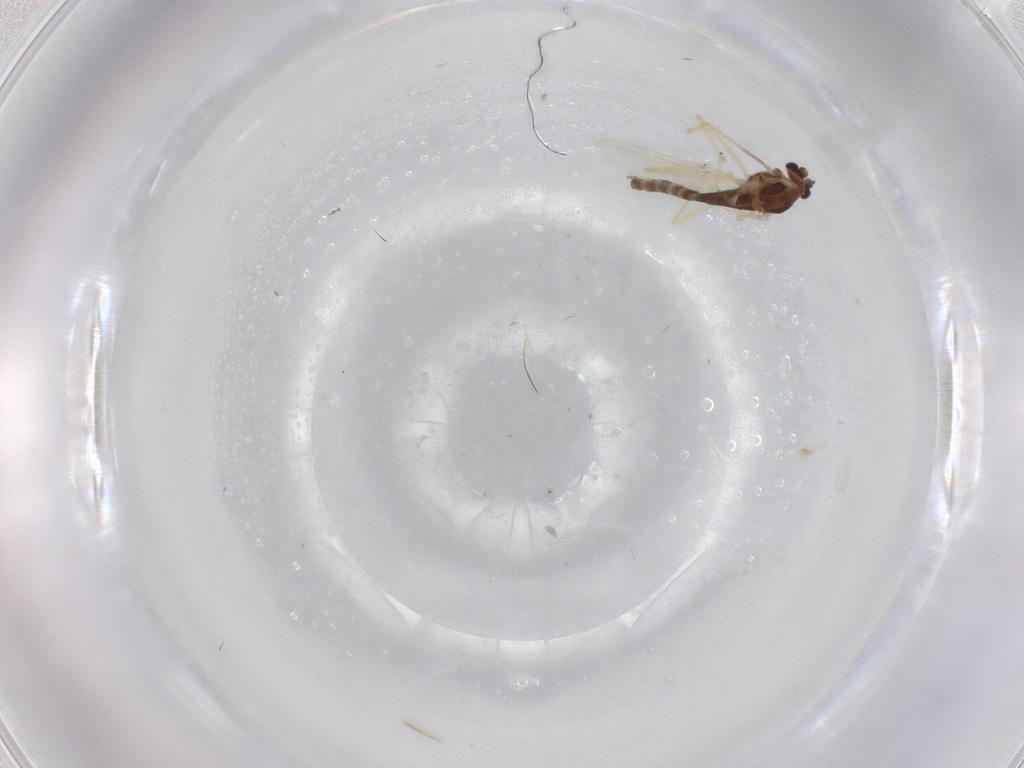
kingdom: Animalia
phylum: Arthropoda
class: Insecta
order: Diptera
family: Chironomidae
